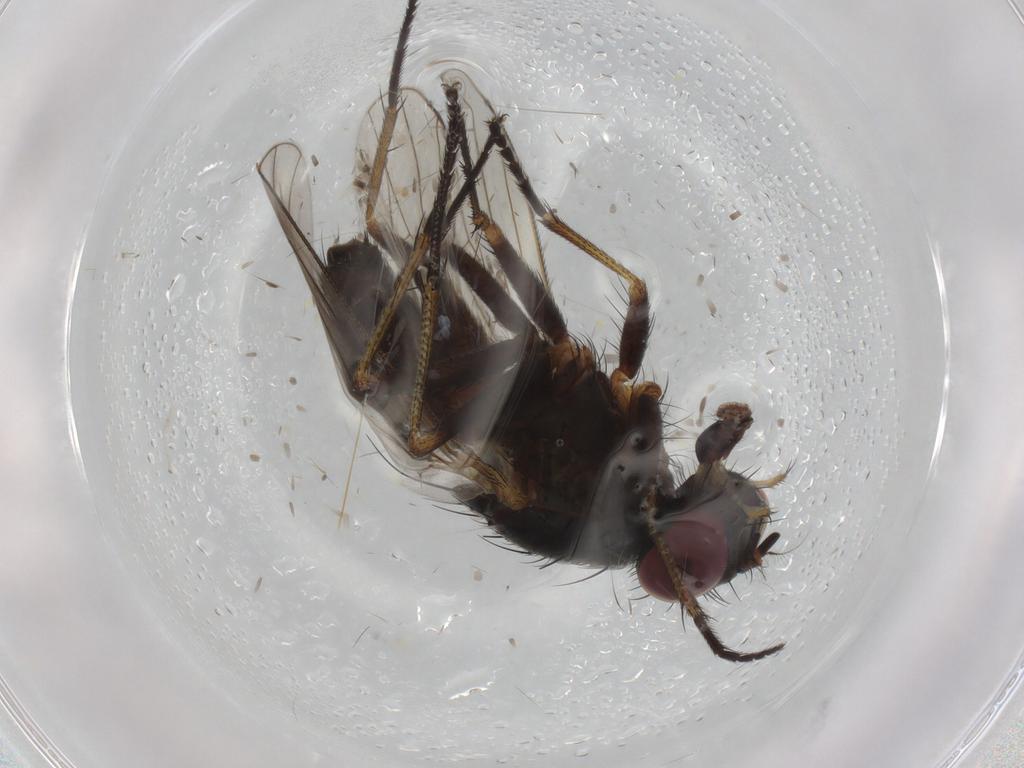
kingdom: Animalia
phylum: Arthropoda
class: Insecta
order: Diptera
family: Muscidae
